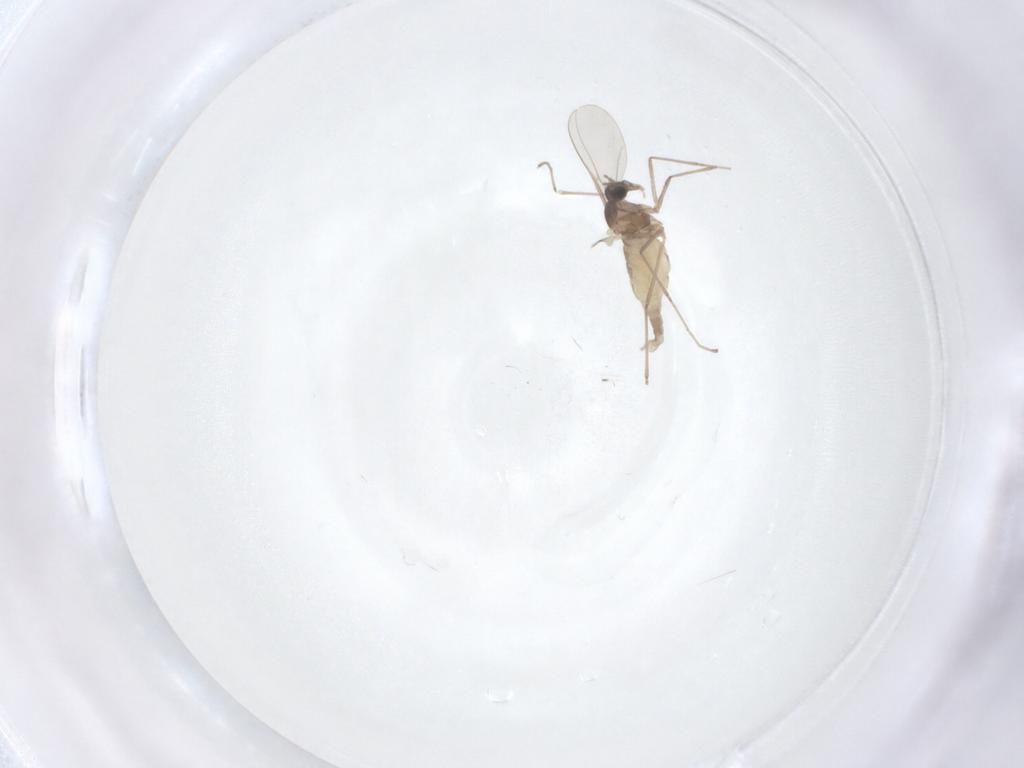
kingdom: Animalia
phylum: Arthropoda
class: Insecta
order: Diptera
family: Cecidomyiidae
